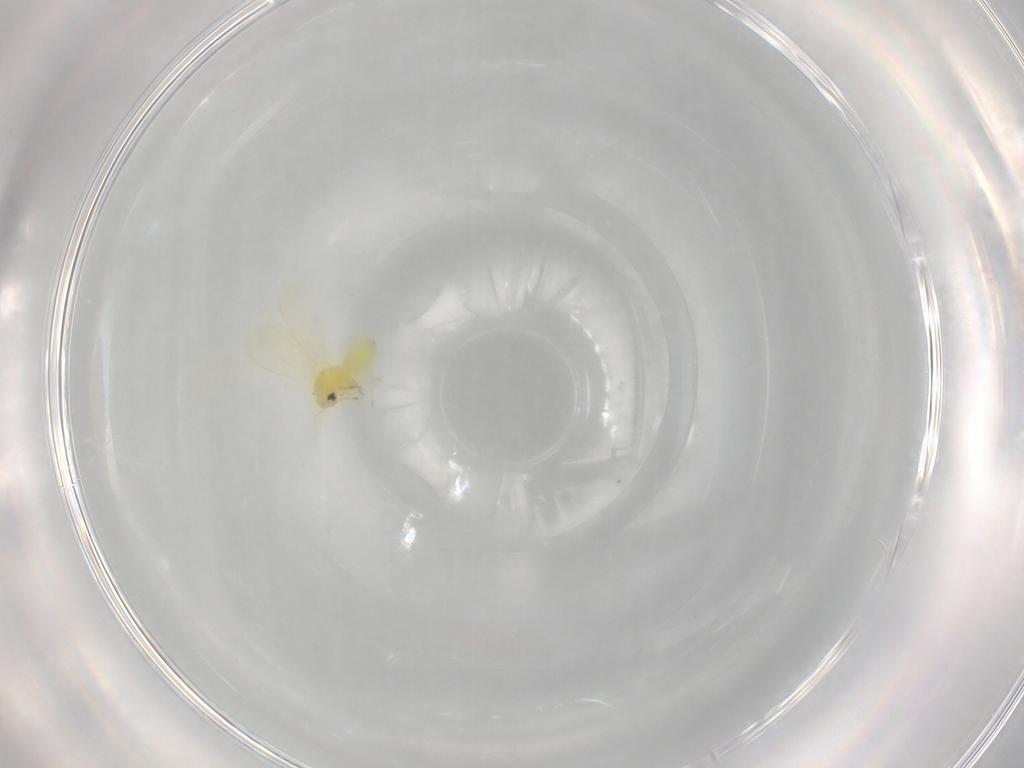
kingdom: Animalia
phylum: Arthropoda
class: Insecta
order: Hemiptera
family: Aleyrodidae
